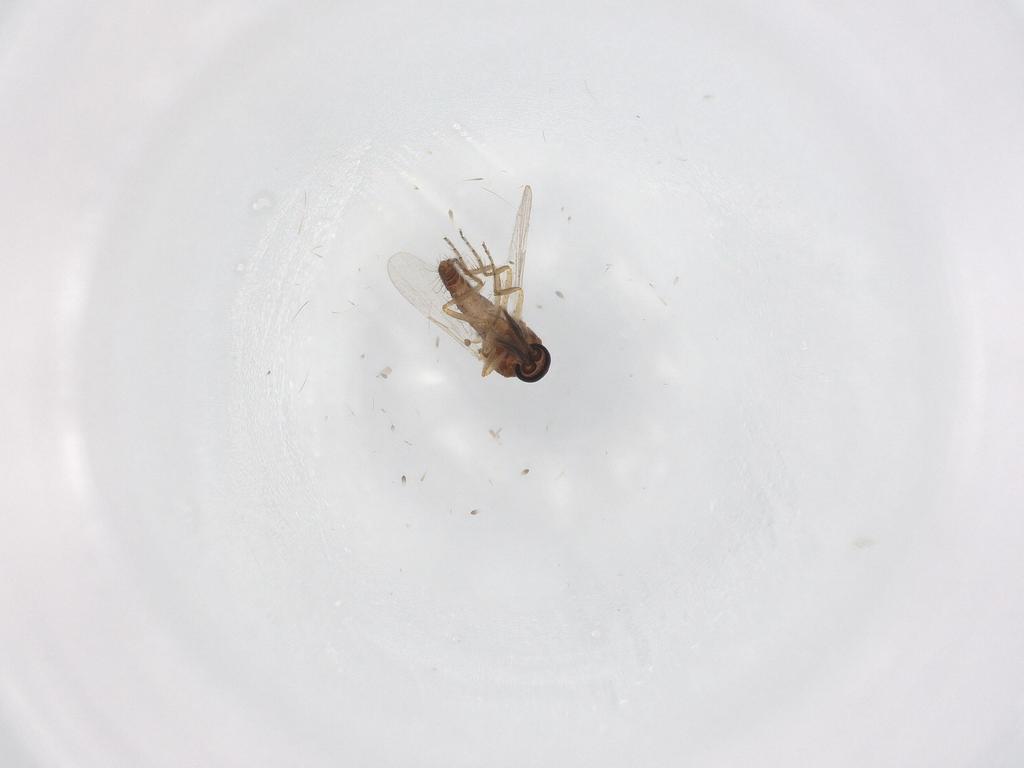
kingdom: Animalia
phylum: Arthropoda
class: Insecta
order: Diptera
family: Ceratopogonidae
